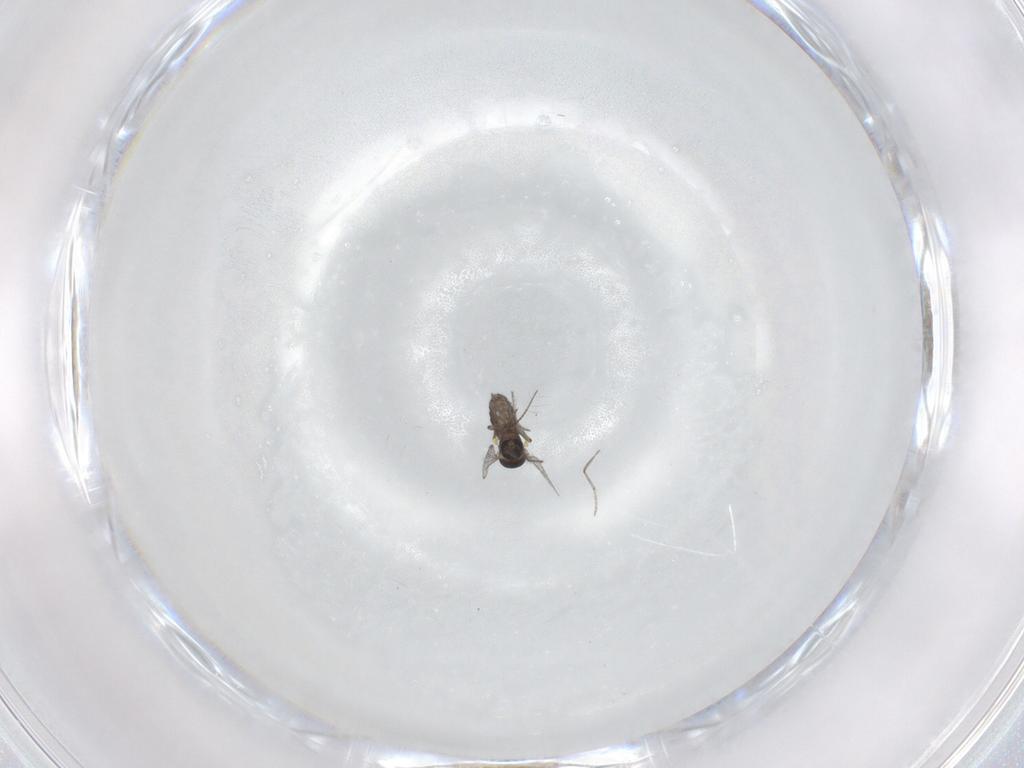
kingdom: Animalia
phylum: Arthropoda
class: Insecta
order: Diptera
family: Ceratopogonidae
